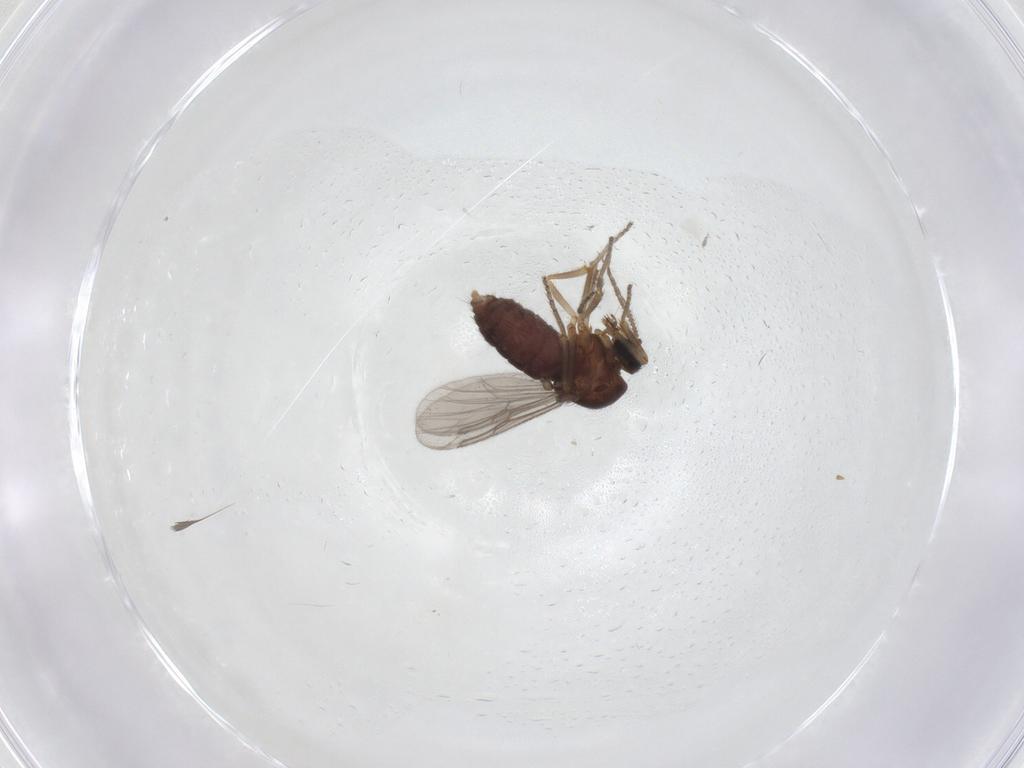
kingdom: Animalia
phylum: Arthropoda
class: Insecta
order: Diptera
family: Ceratopogonidae
